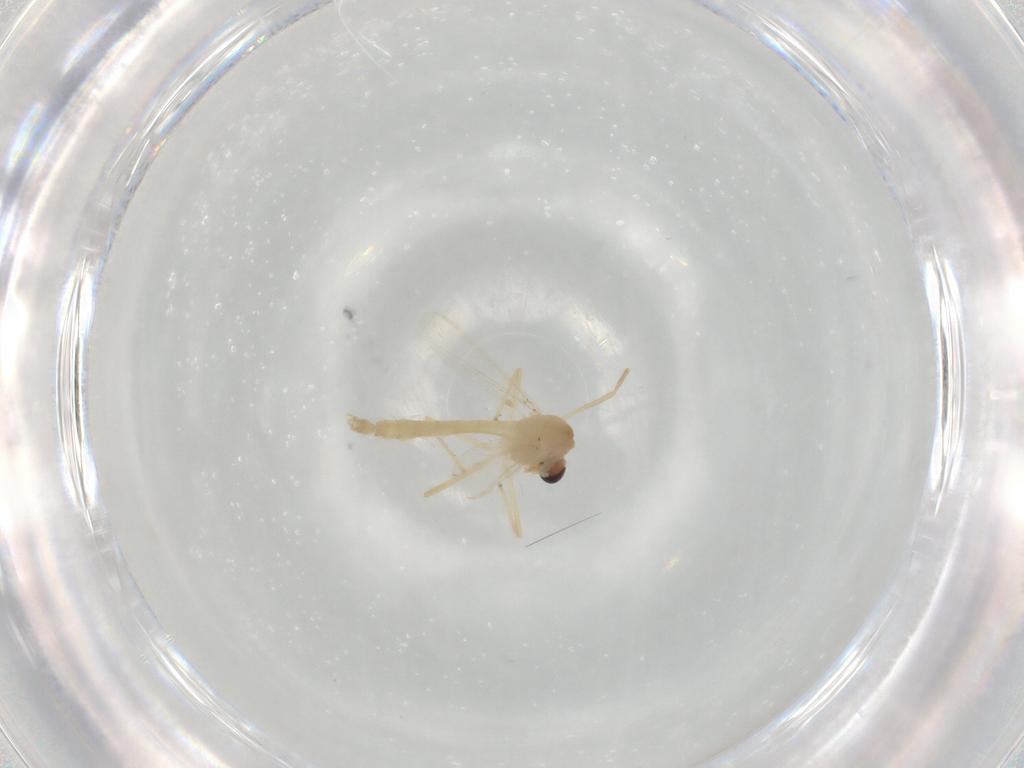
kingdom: Animalia
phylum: Arthropoda
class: Insecta
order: Diptera
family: Chironomidae
